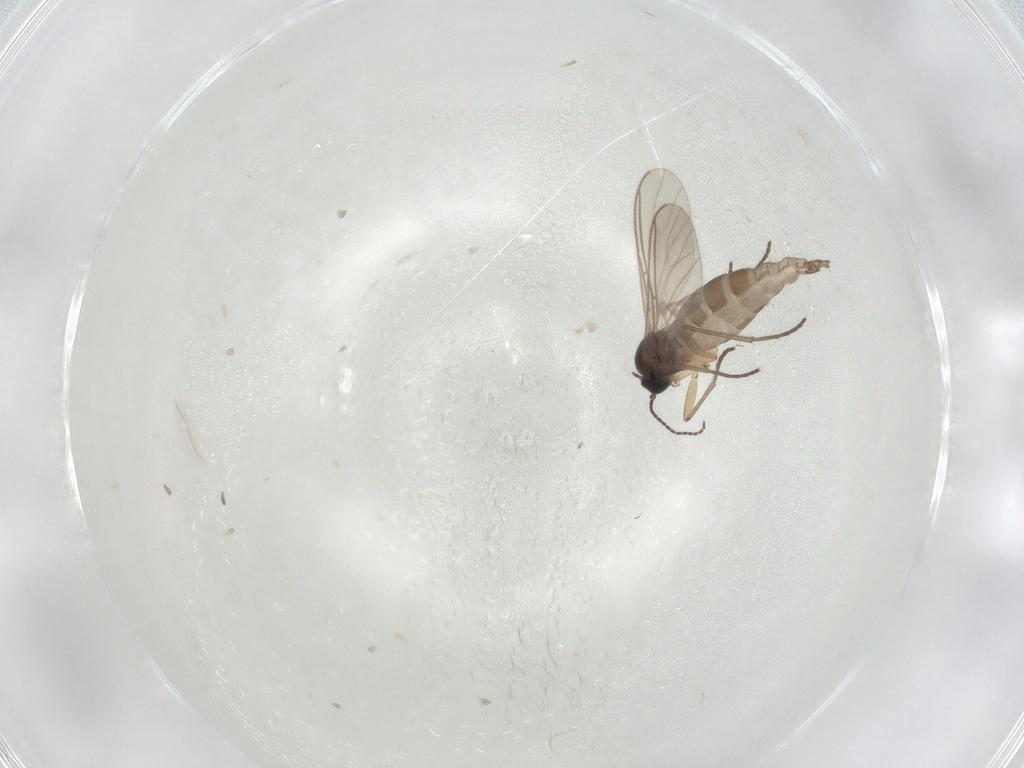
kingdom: Animalia
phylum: Arthropoda
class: Insecta
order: Diptera
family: Sciaridae
